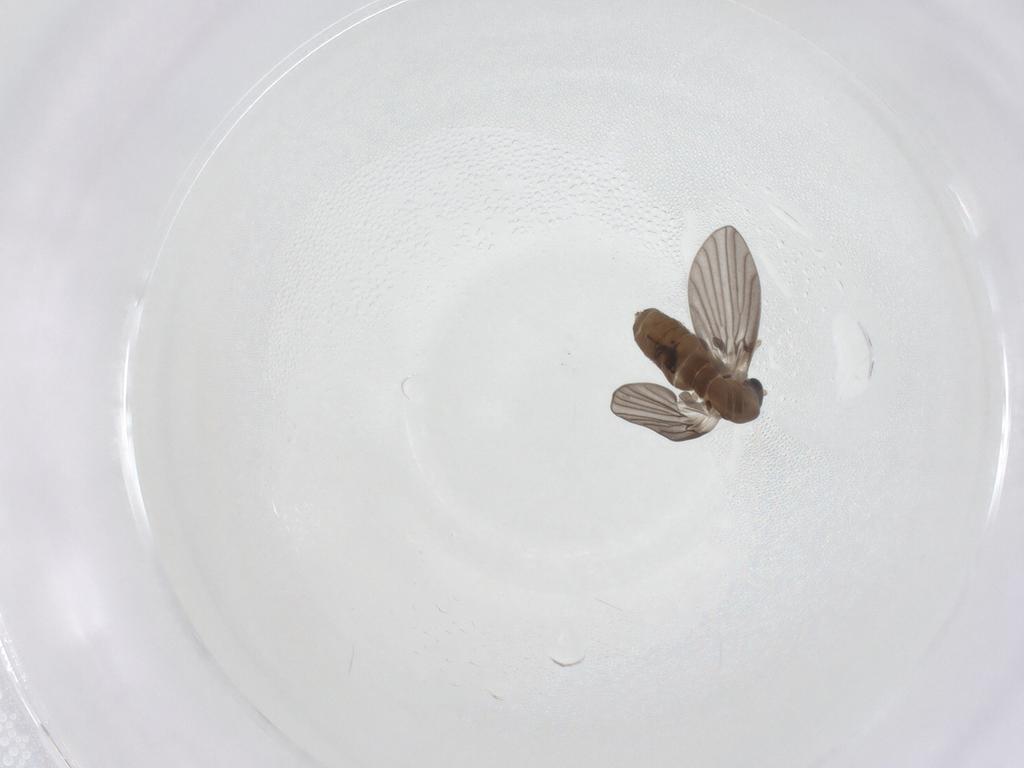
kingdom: Animalia
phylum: Arthropoda
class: Insecta
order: Diptera
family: Psychodidae
